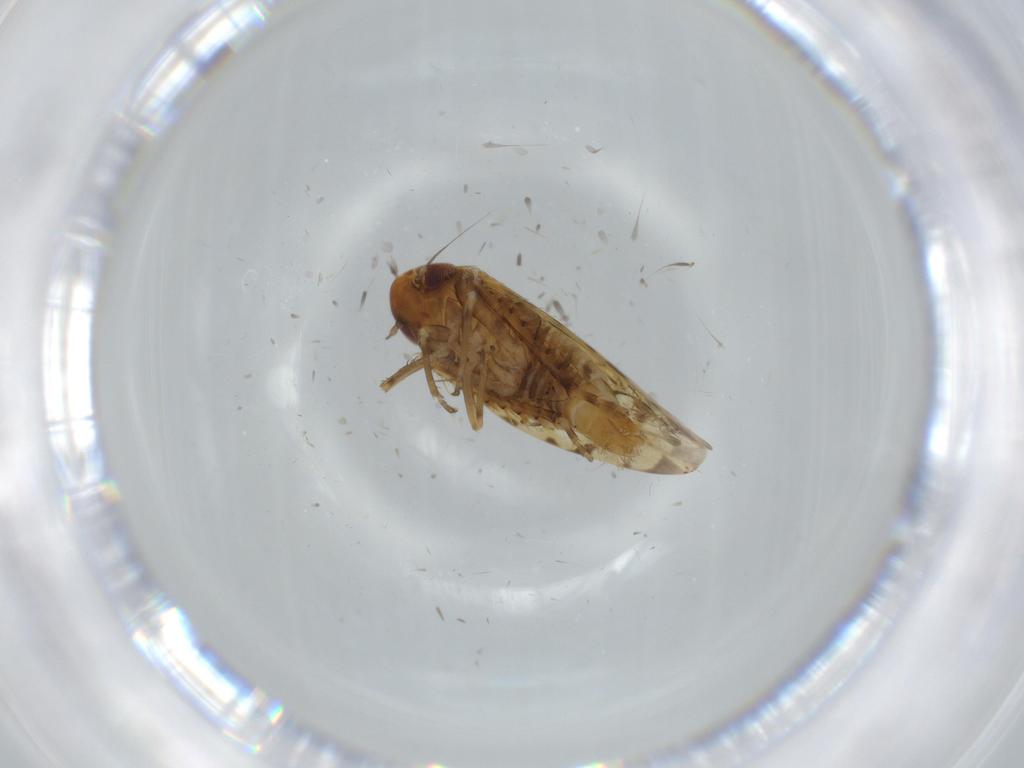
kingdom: Animalia
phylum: Arthropoda
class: Insecta
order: Hemiptera
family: Cicadellidae
